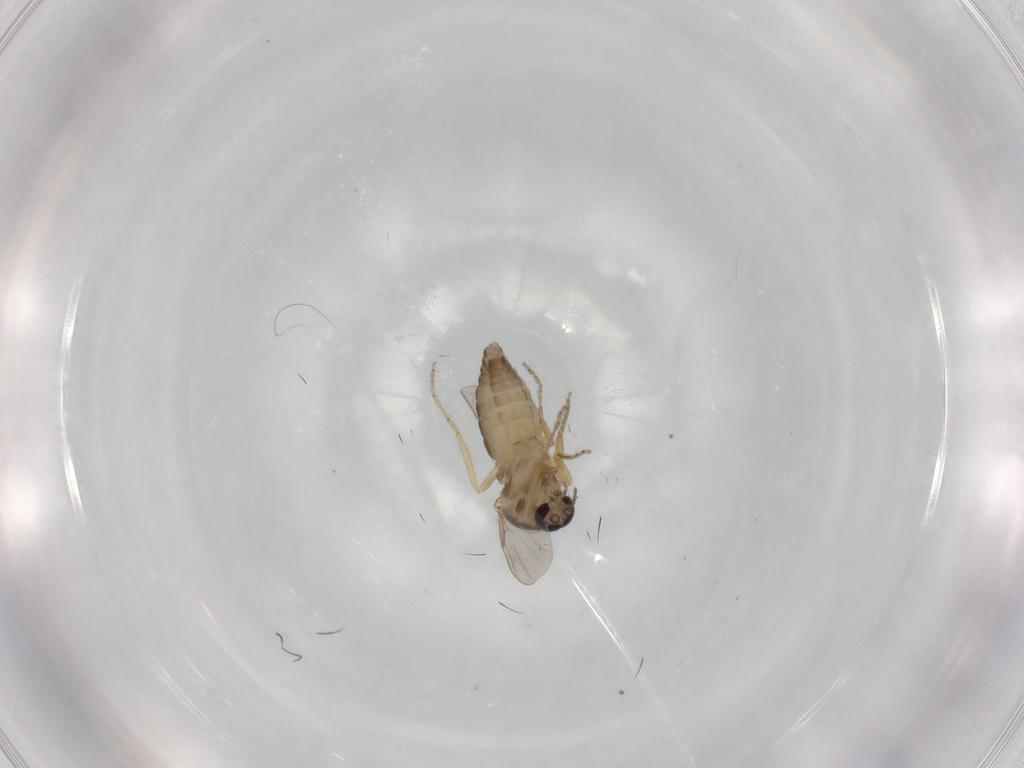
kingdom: Animalia
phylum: Arthropoda
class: Insecta
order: Diptera
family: Ceratopogonidae
